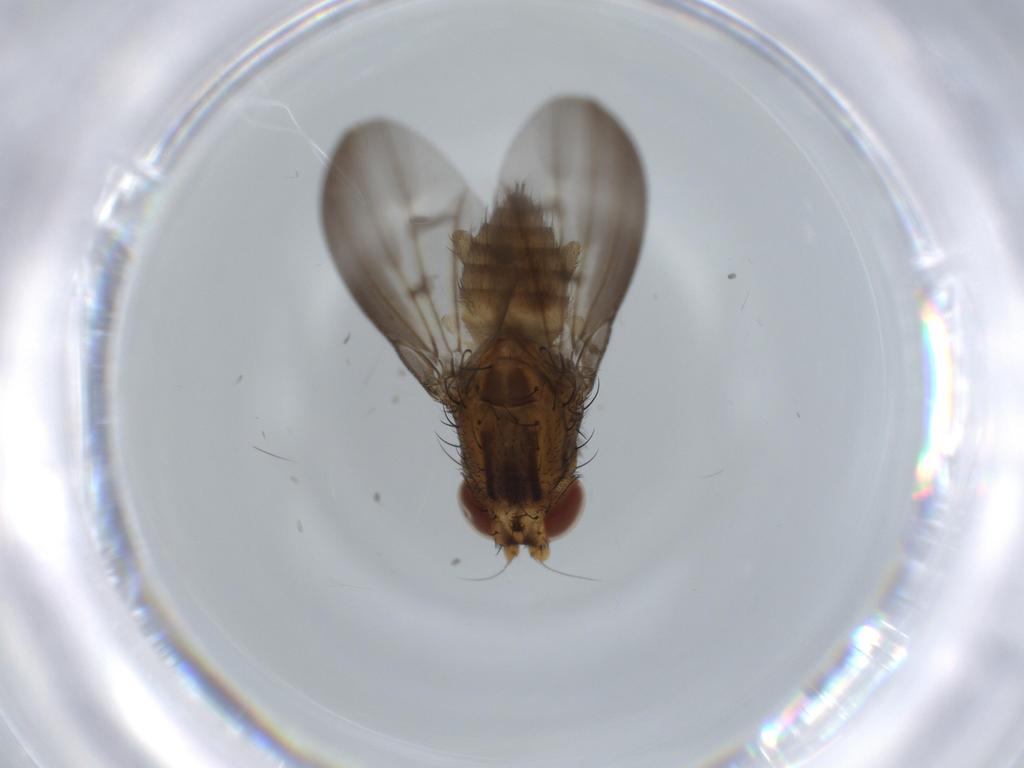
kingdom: Animalia
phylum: Arthropoda
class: Insecta
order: Diptera
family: Lauxaniidae
